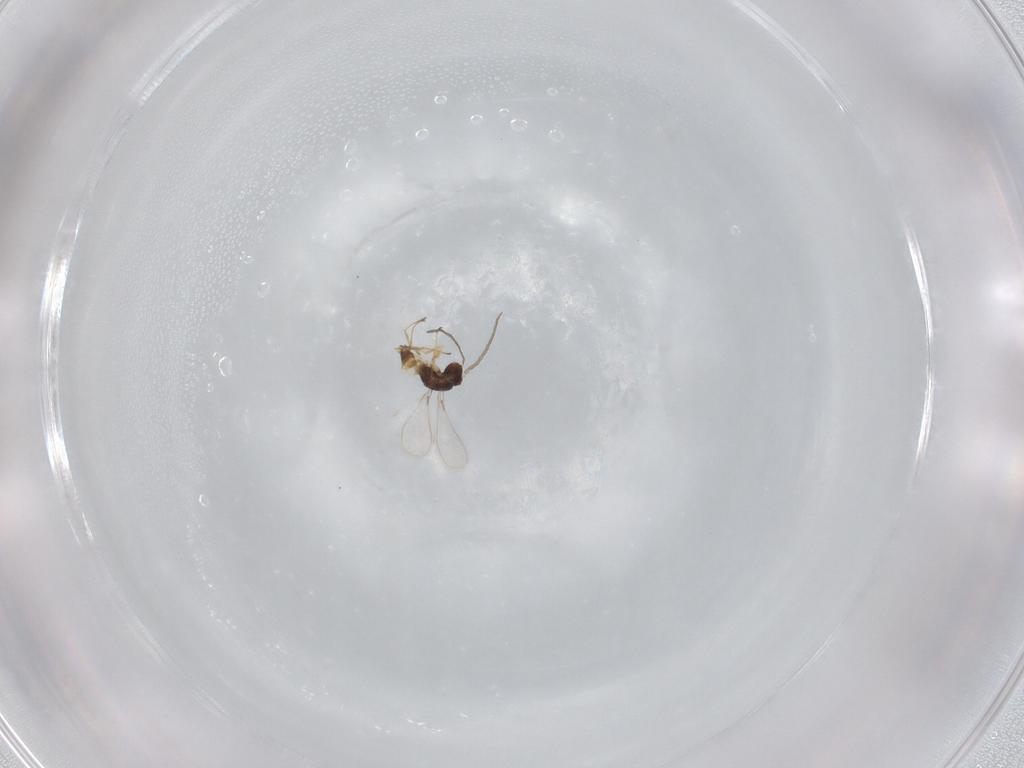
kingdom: Animalia
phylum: Arthropoda
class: Insecta
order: Hymenoptera
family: Mymaridae
